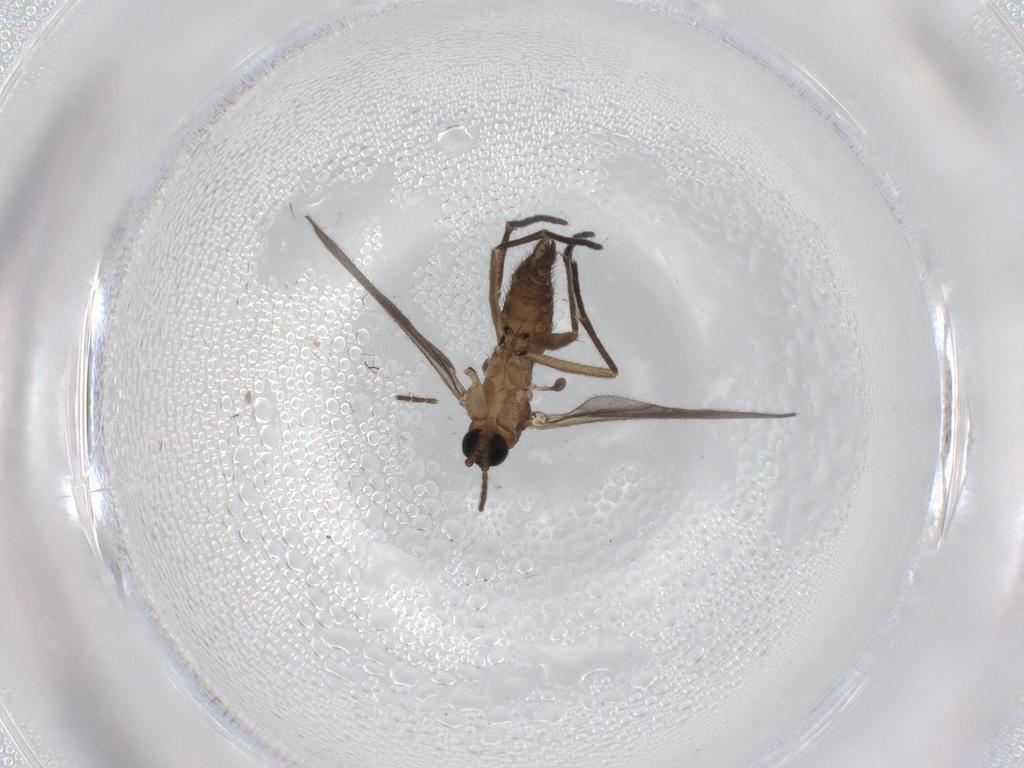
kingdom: Animalia
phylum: Arthropoda
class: Insecta
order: Diptera
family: Sciaridae
